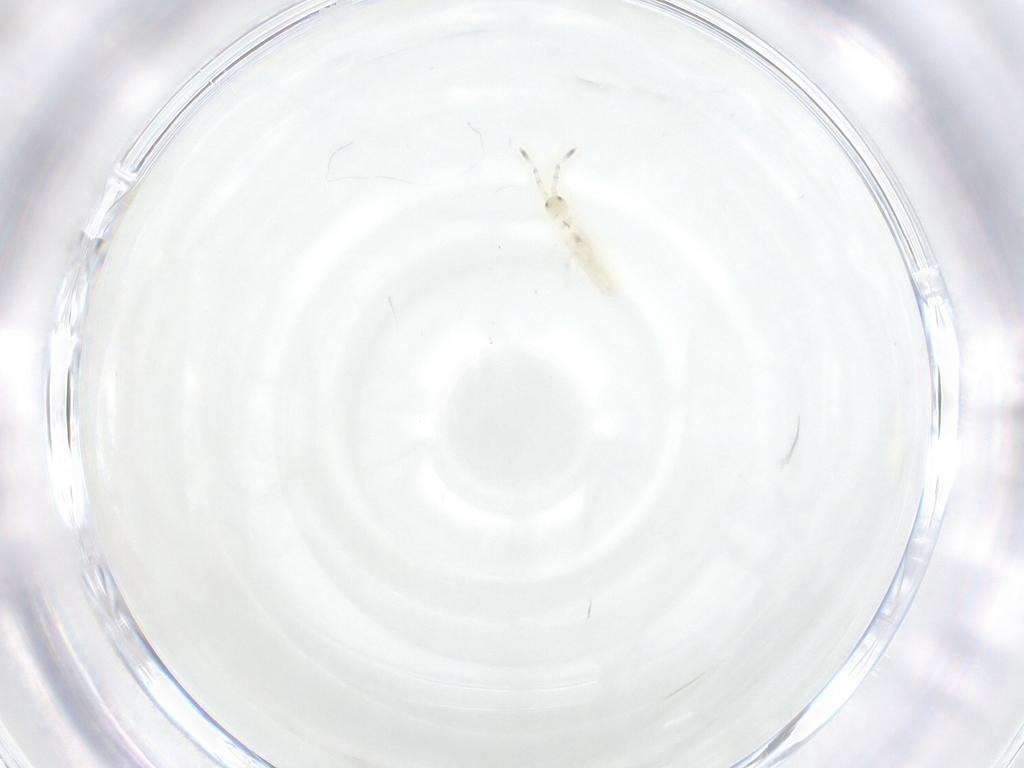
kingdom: Animalia
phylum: Arthropoda
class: Collembola
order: Entomobryomorpha
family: Entomobryidae
